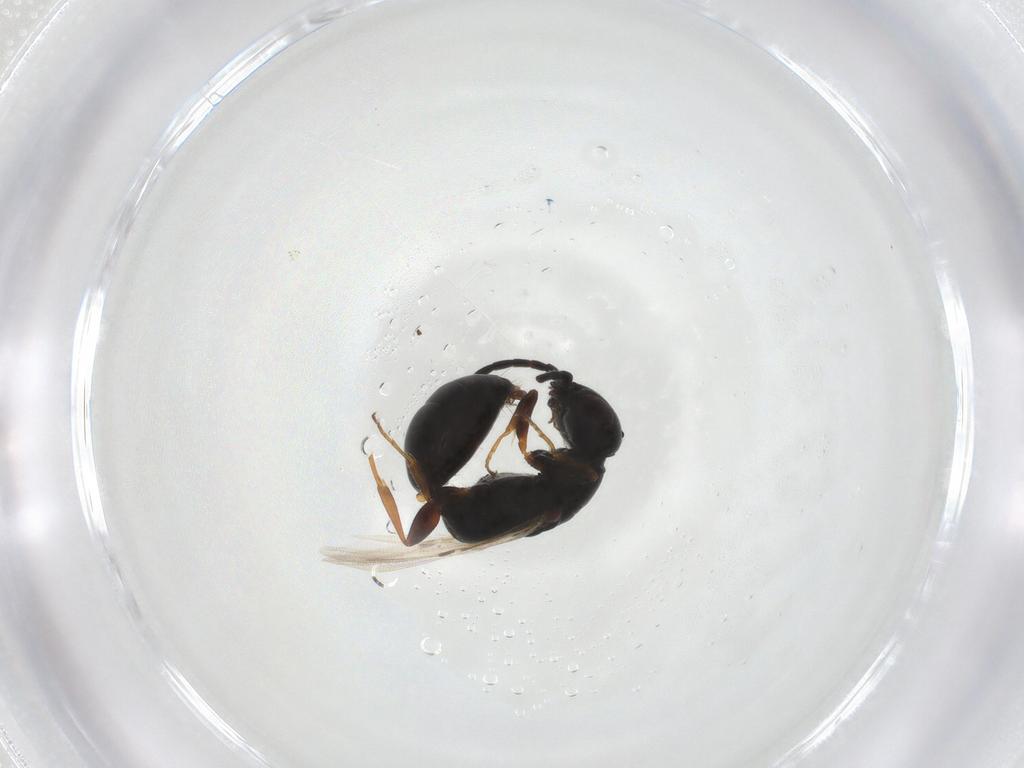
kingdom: Animalia
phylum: Arthropoda
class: Insecta
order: Hymenoptera
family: Bethylidae
